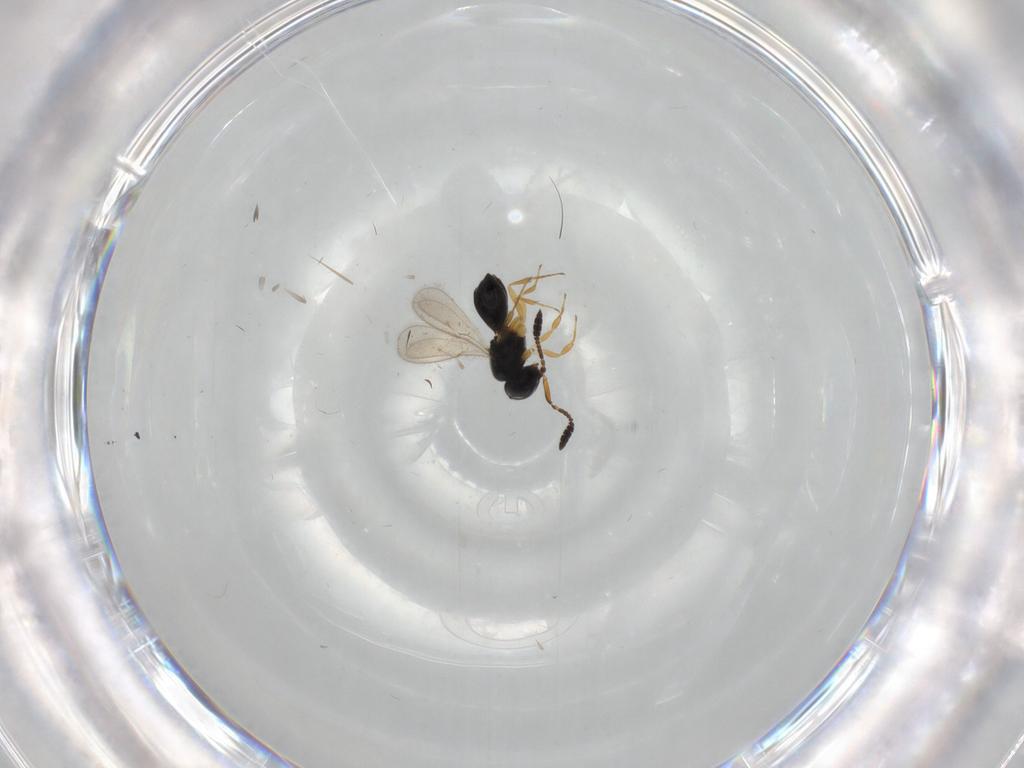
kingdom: Animalia
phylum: Arthropoda
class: Insecta
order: Hymenoptera
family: Scelionidae
